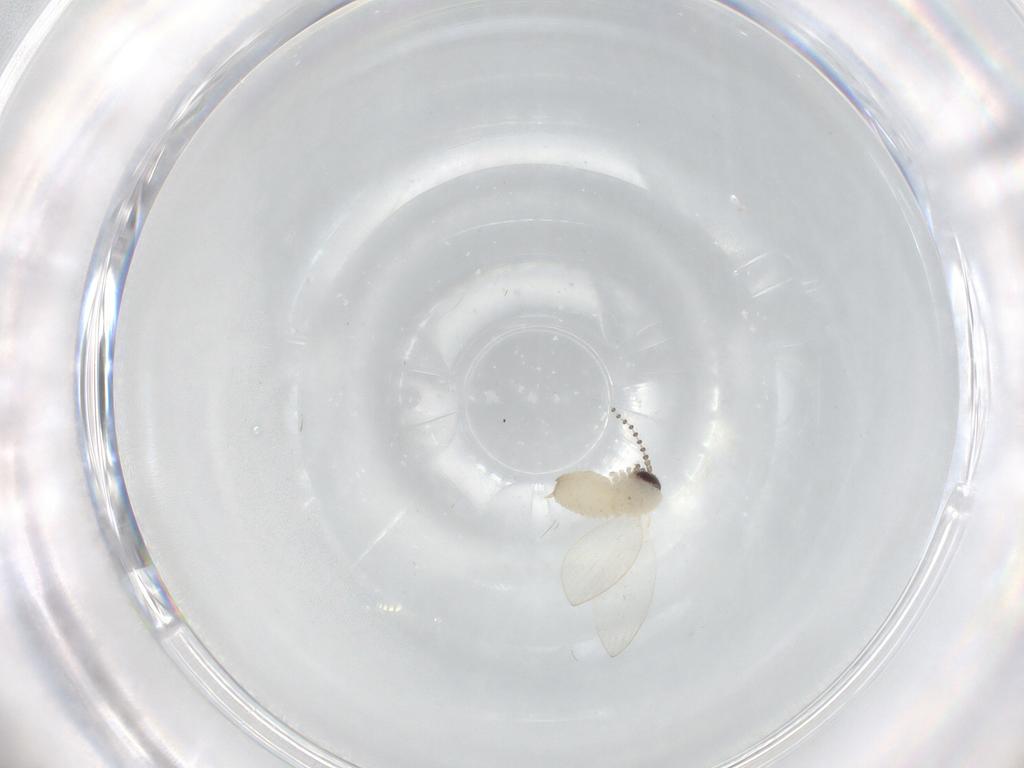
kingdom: Animalia
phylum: Arthropoda
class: Insecta
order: Diptera
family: Psychodidae
